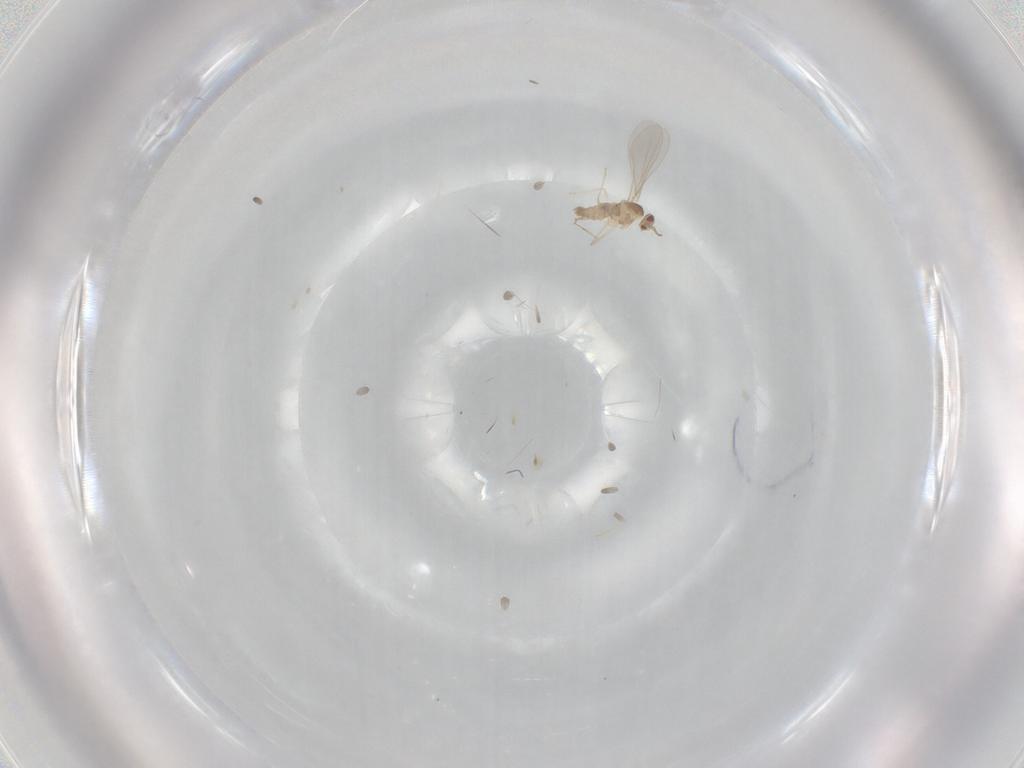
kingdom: Animalia
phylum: Arthropoda
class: Insecta
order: Diptera
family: Cecidomyiidae
